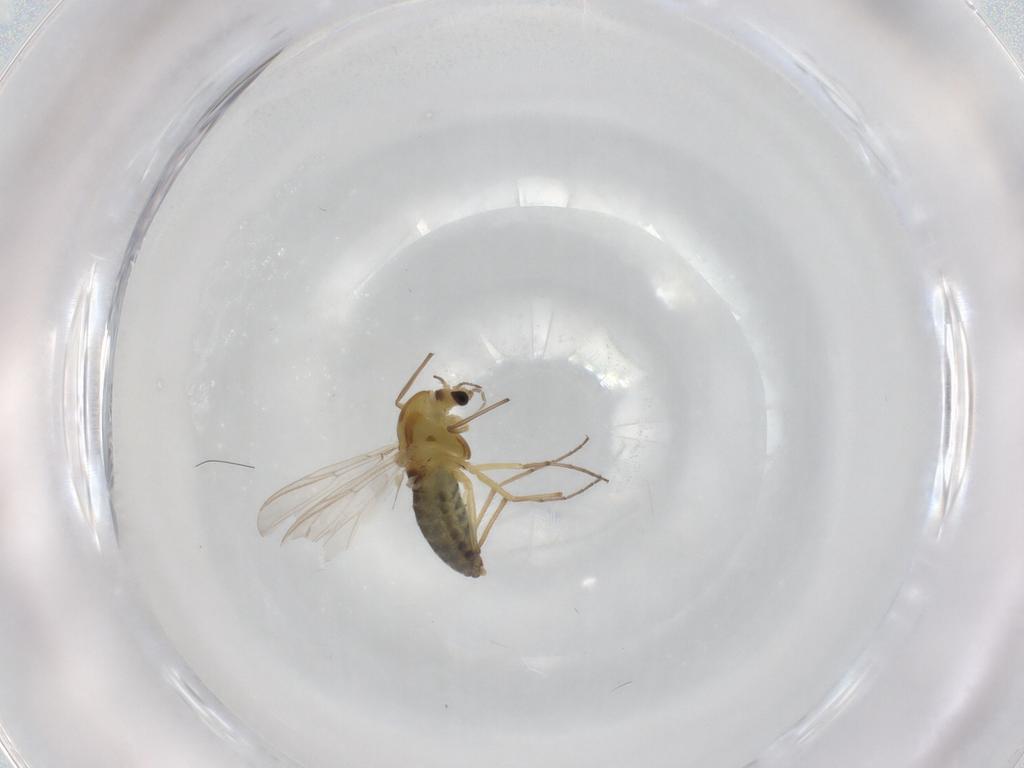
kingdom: Animalia
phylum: Arthropoda
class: Insecta
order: Diptera
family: Chironomidae
